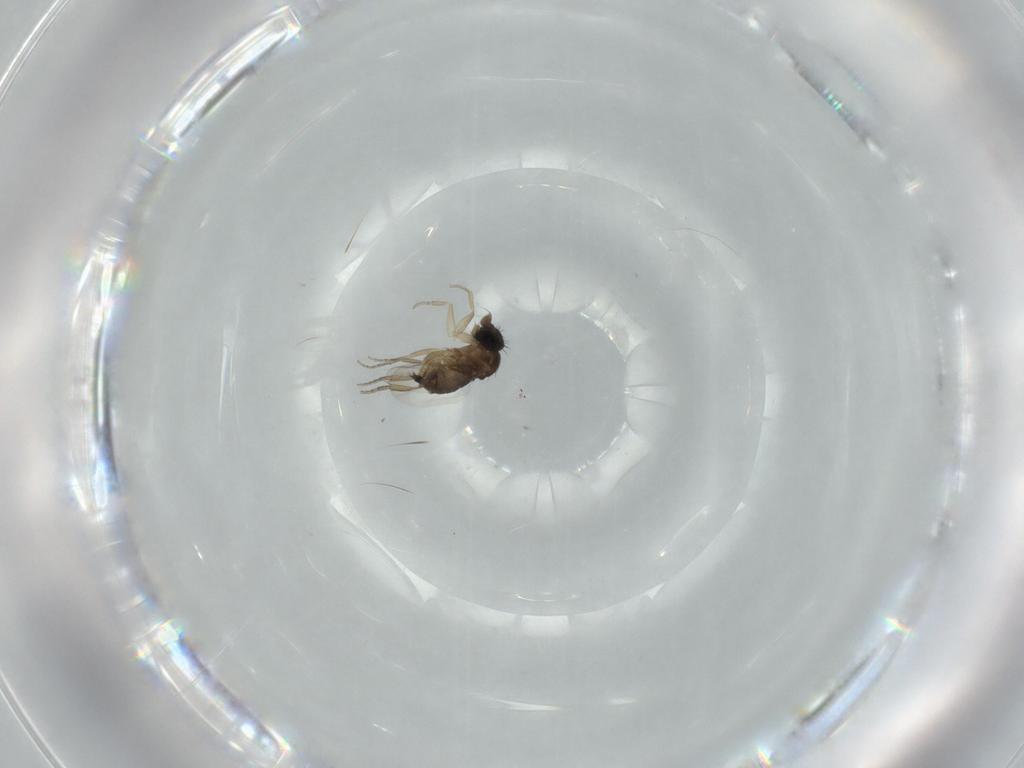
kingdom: Animalia
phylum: Arthropoda
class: Insecta
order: Diptera
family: Phoridae
